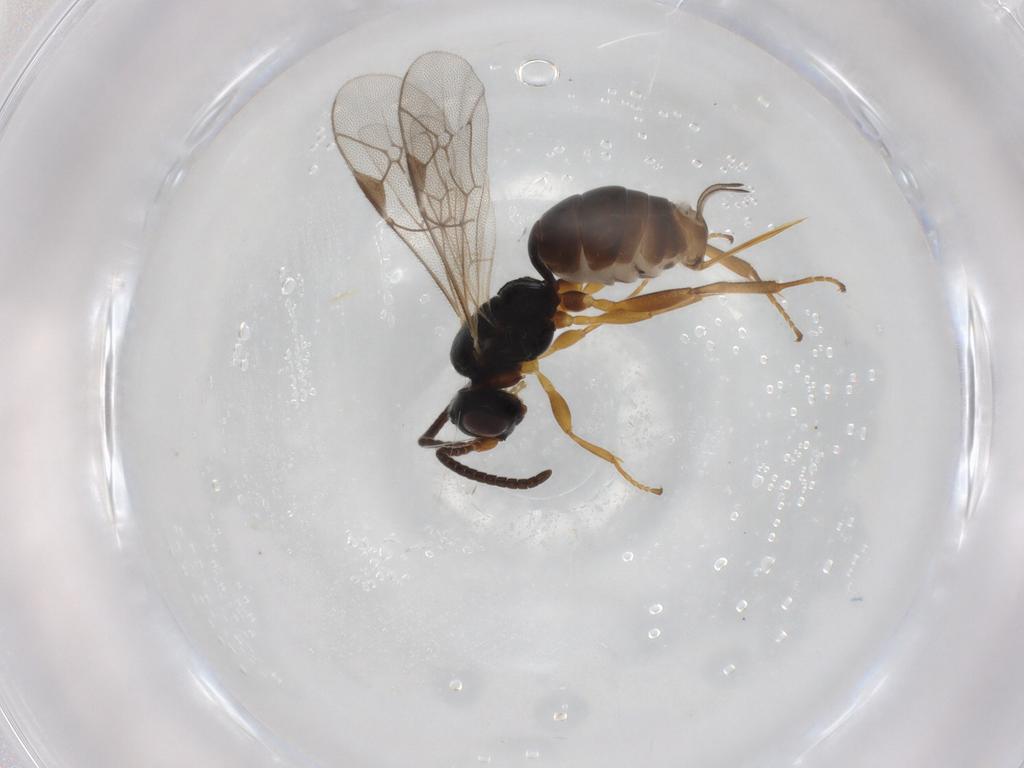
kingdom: Animalia
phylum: Arthropoda
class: Insecta
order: Hymenoptera
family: Ichneumonidae
